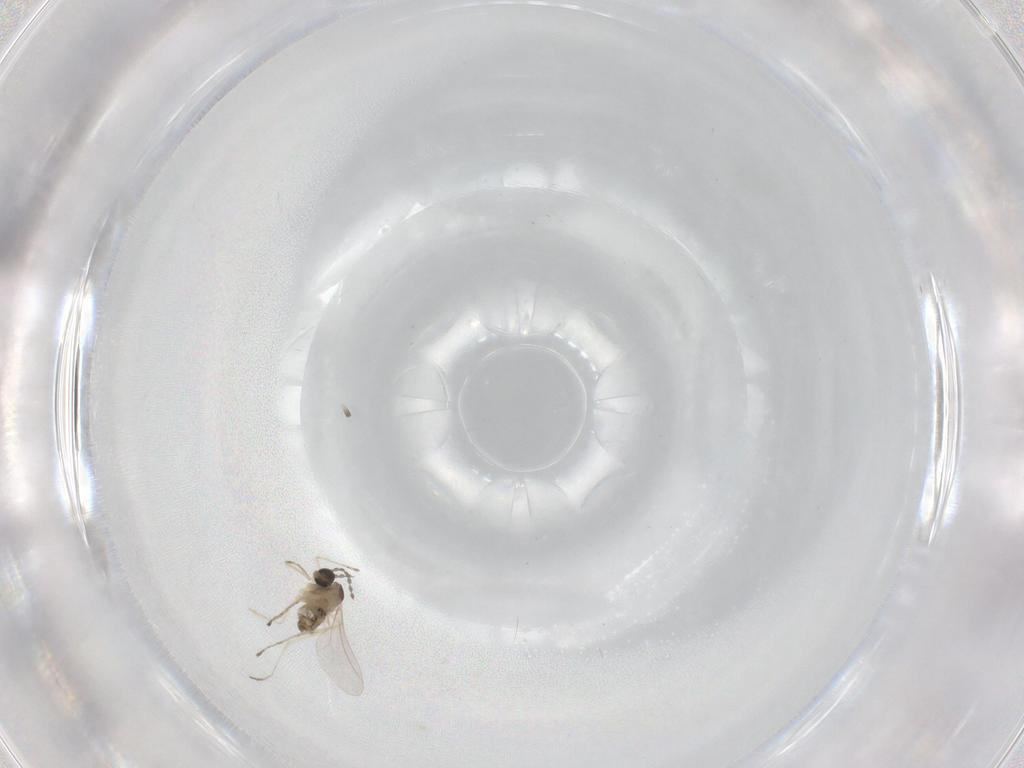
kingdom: Animalia
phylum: Arthropoda
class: Insecta
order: Diptera
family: Cecidomyiidae
